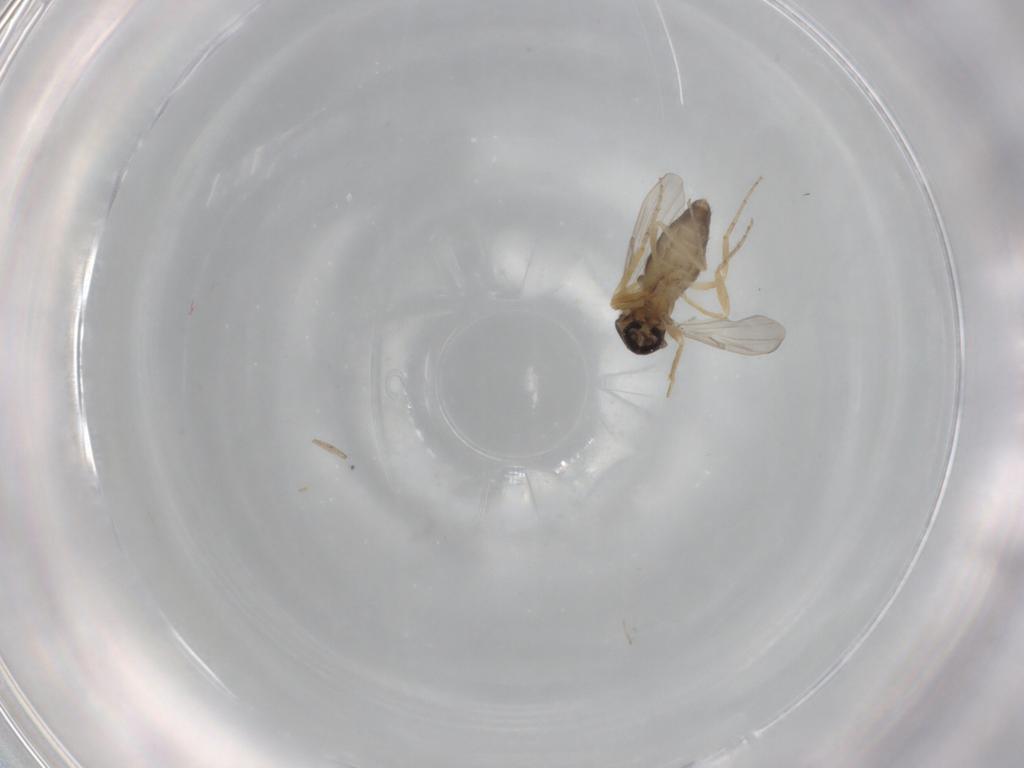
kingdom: Animalia
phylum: Arthropoda
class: Insecta
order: Diptera
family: Ceratopogonidae
